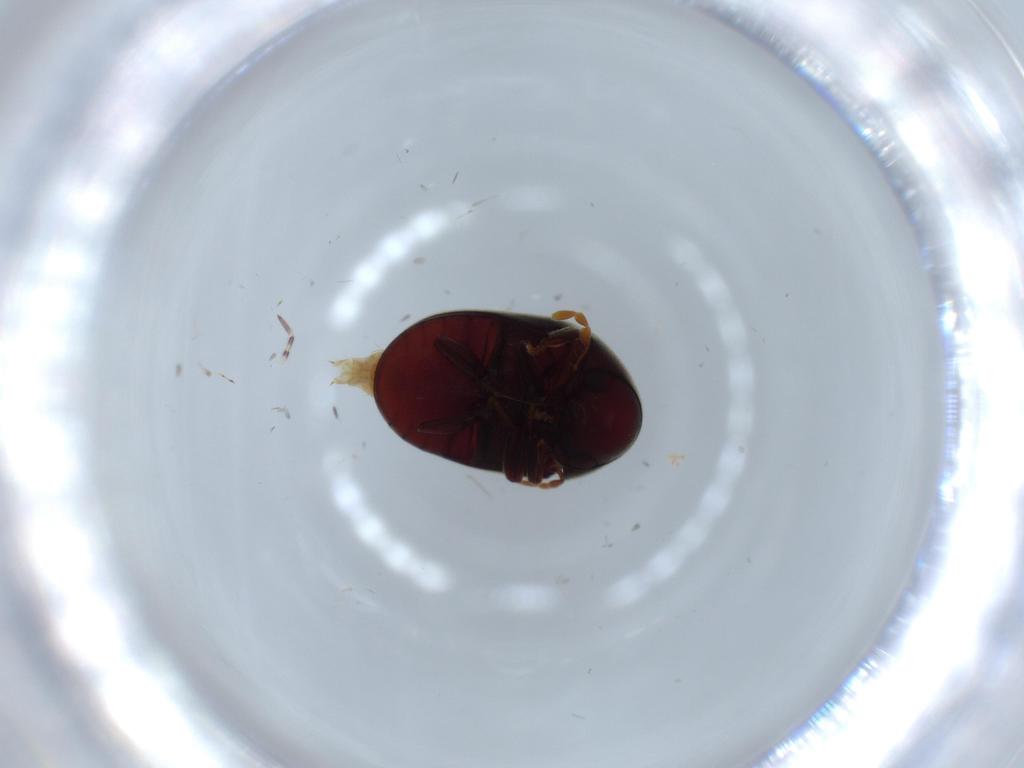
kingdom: Animalia
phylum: Arthropoda
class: Insecta
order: Coleoptera
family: Ptinidae
